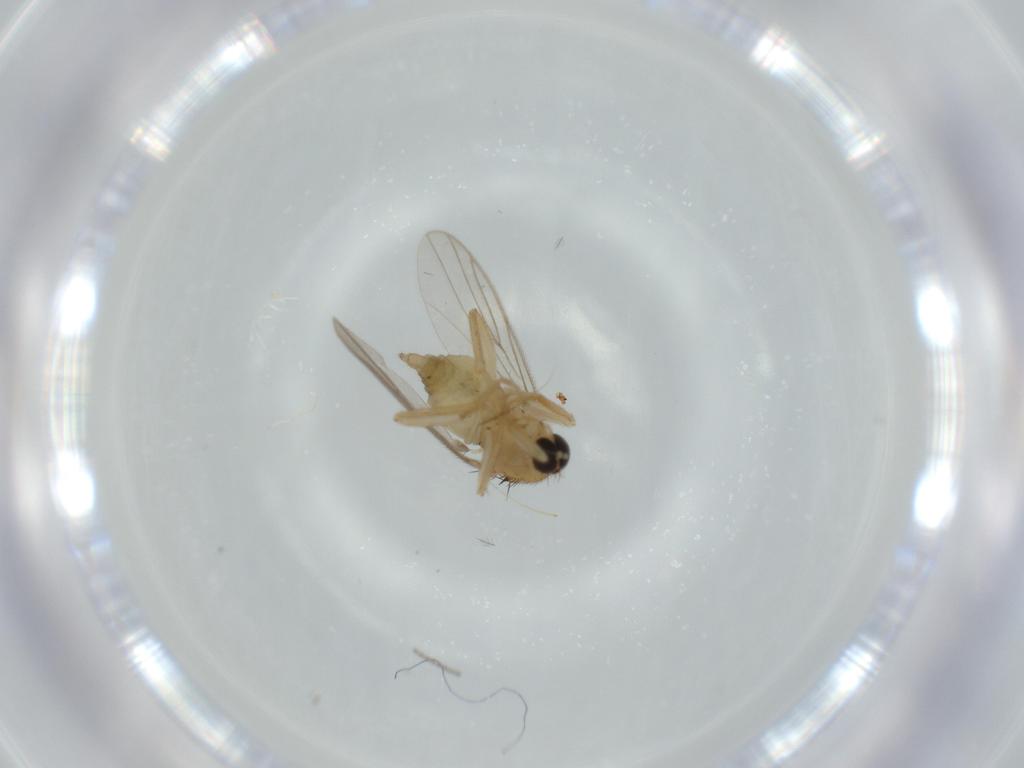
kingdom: Animalia
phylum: Arthropoda
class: Insecta
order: Diptera
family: Hybotidae
